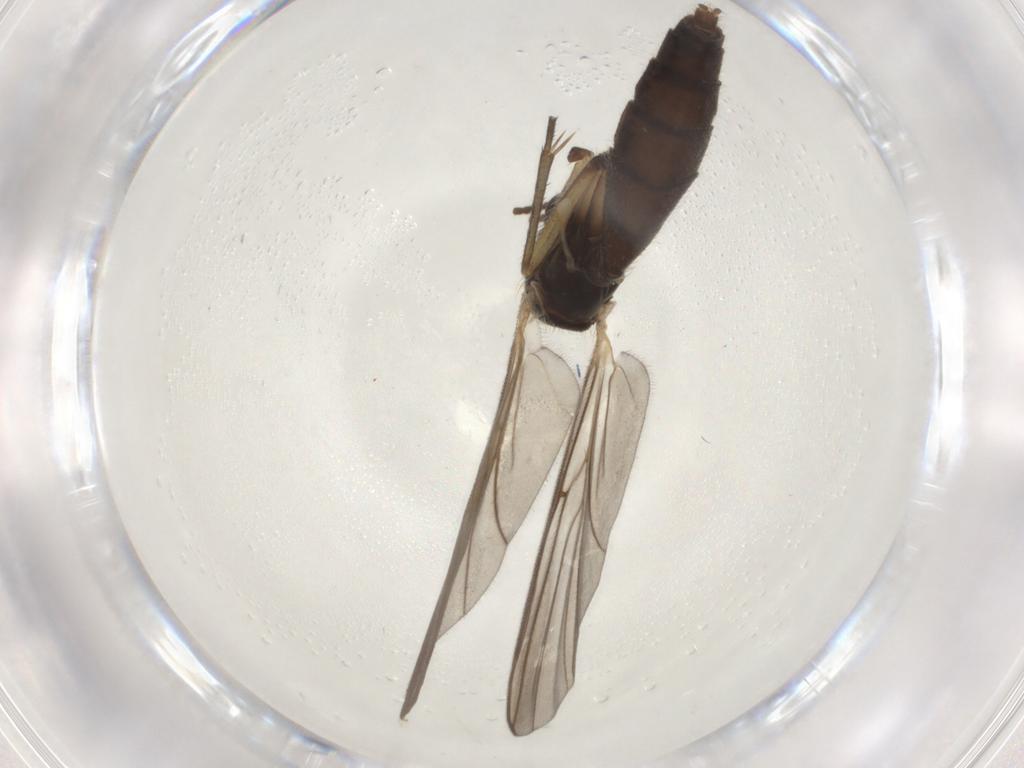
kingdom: Animalia
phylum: Arthropoda
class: Insecta
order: Diptera
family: Mycetophilidae
